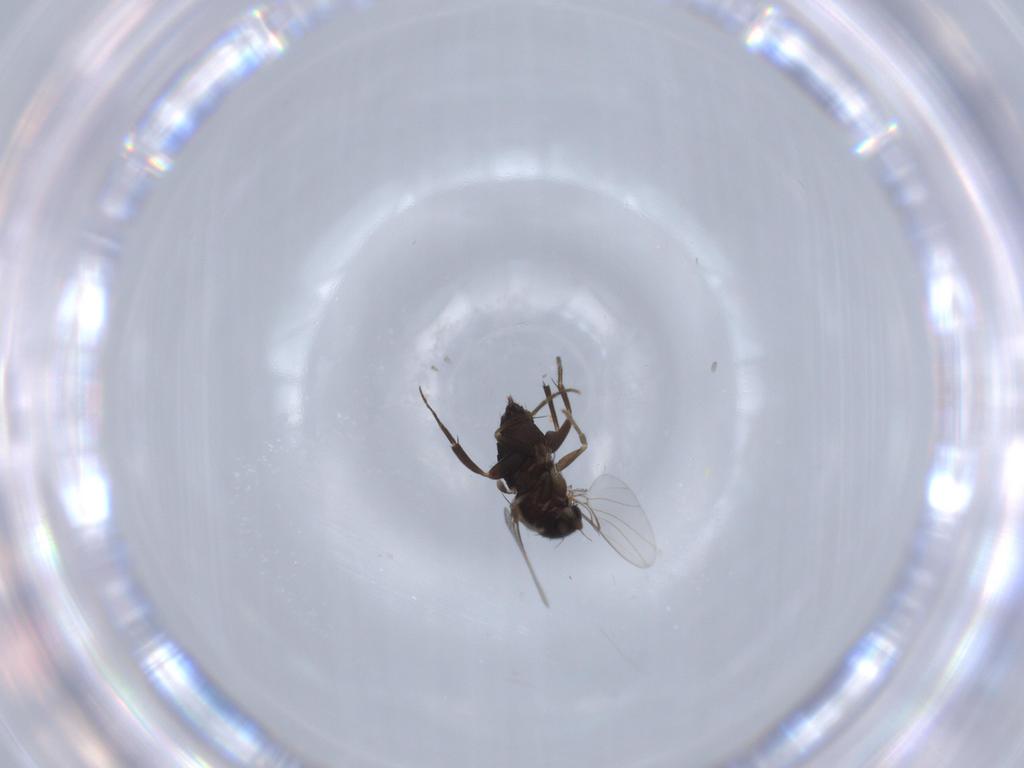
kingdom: Animalia
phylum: Arthropoda
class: Insecta
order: Diptera
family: Phoridae
